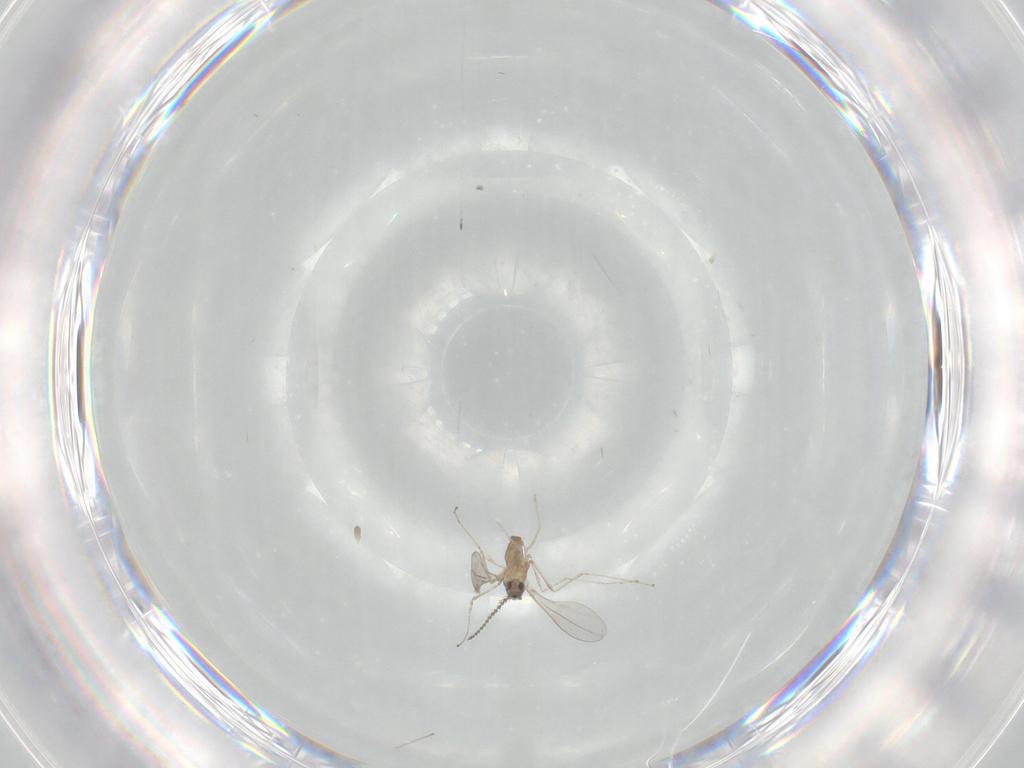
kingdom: Animalia
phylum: Arthropoda
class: Insecta
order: Diptera
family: Cecidomyiidae
